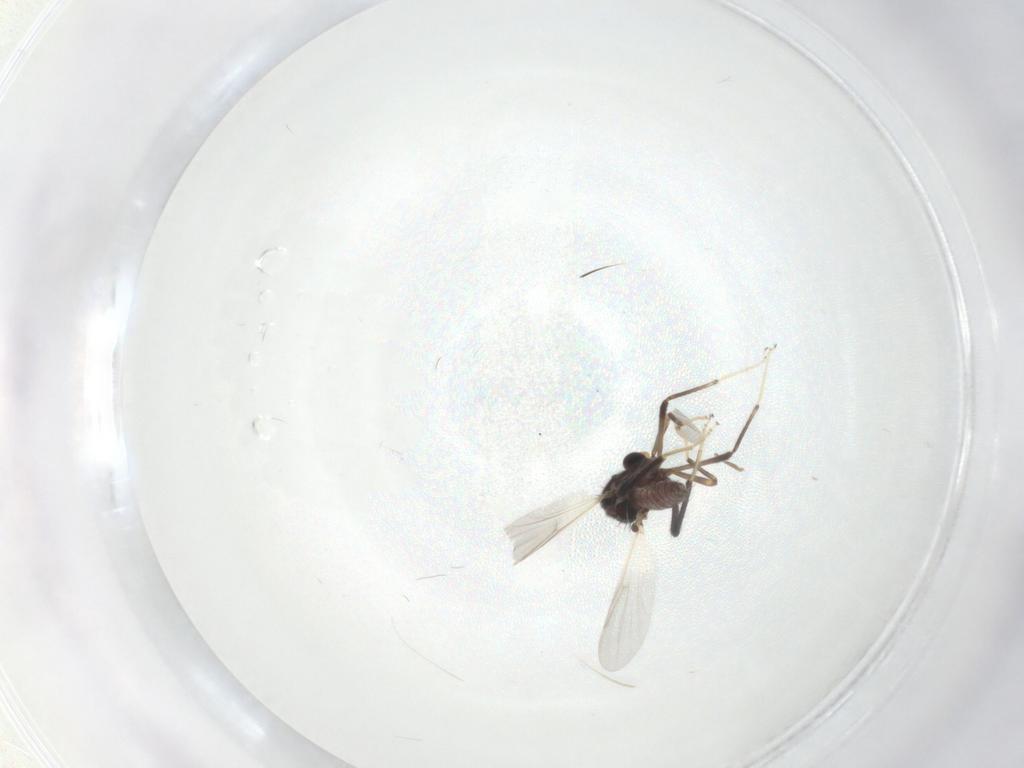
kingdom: Animalia
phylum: Arthropoda
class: Insecta
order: Diptera
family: Ceratopogonidae
